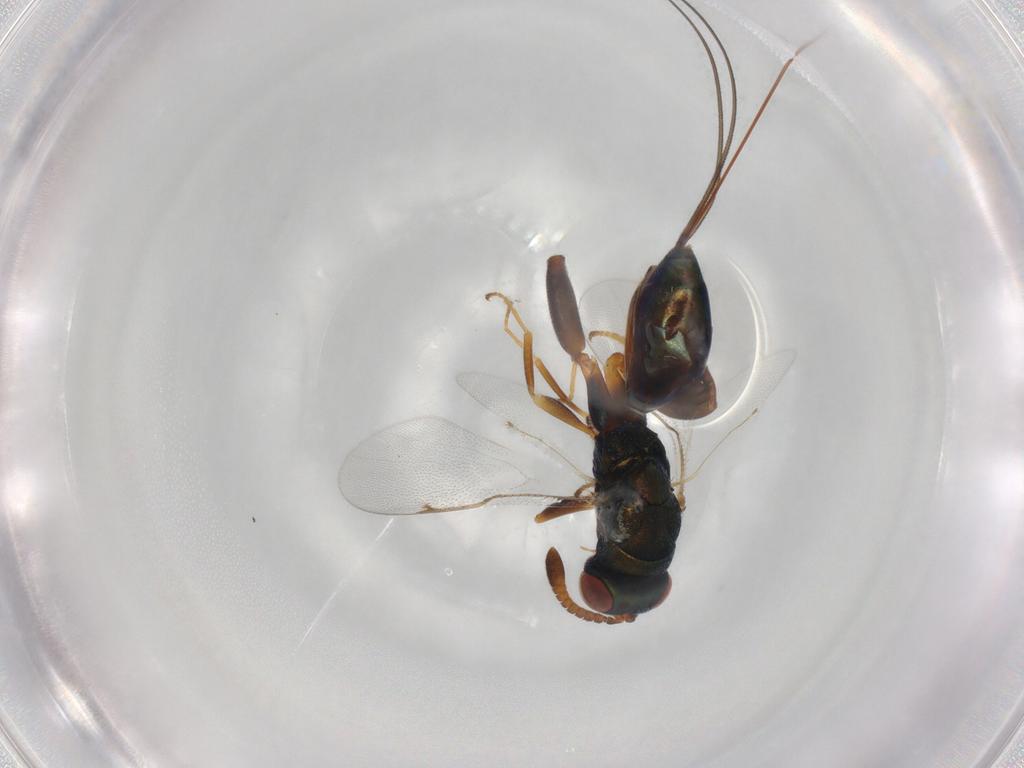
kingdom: Animalia
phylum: Arthropoda
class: Insecta
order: Hymenoptera
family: Torymidae
